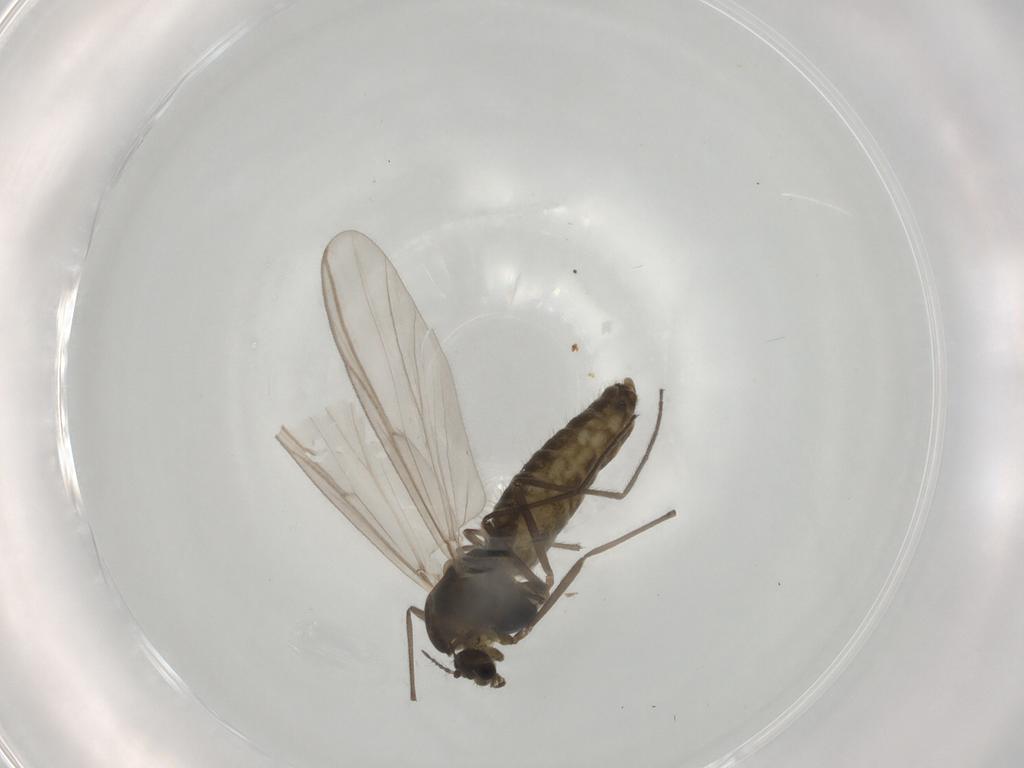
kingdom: Animalia
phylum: Arthropoda
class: Insecta
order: Diptera
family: Chironomidae
